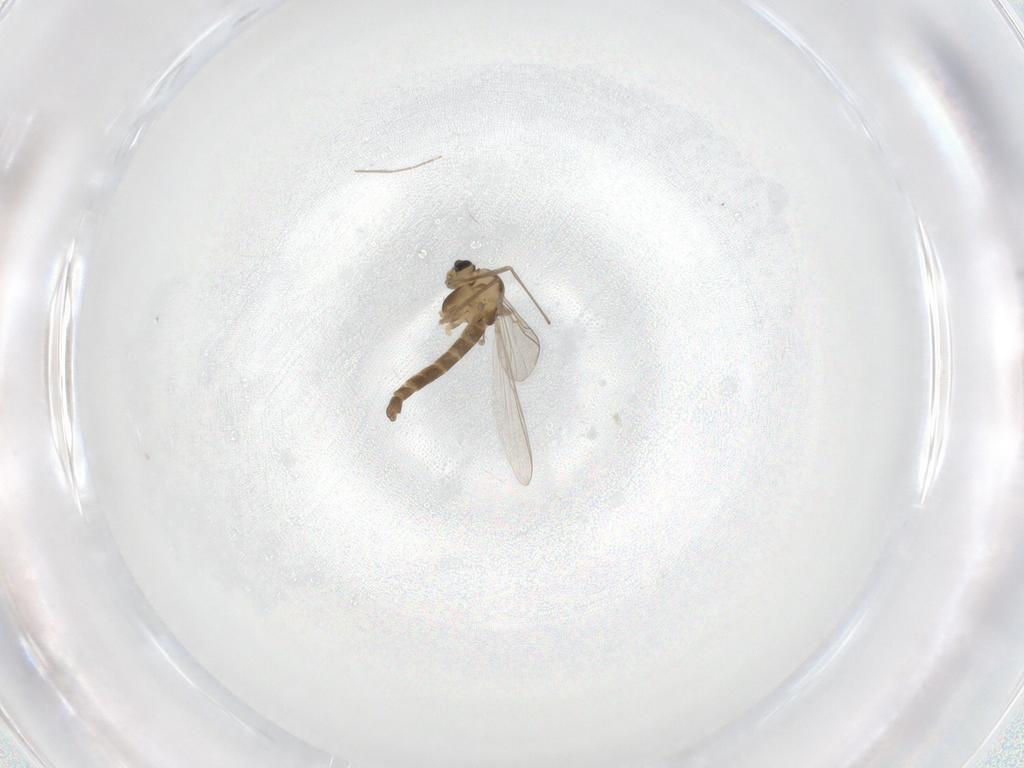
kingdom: Animalia
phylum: Arthropoda
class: Insecta
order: Diptera
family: Chironomidae
